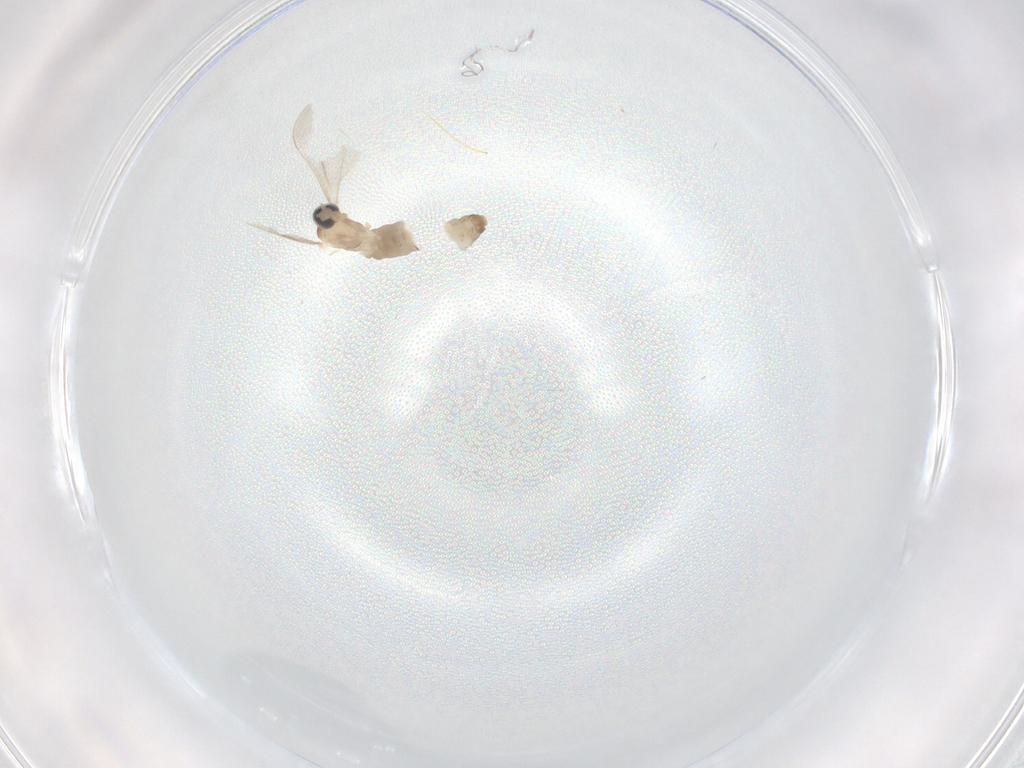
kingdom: Animalia
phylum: Arthropoda
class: Insecta
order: Diptera
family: Cecidomyiidae
